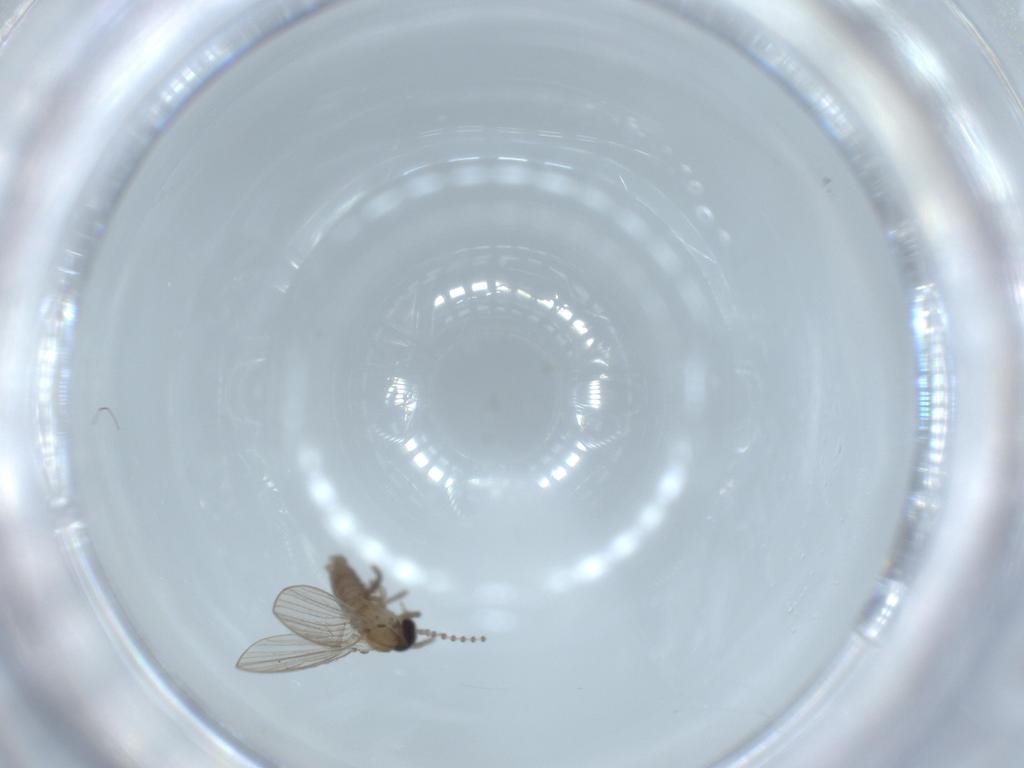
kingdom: Animalia
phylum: Arthropoda
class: Insecta
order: Diptera
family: Psychodidae
